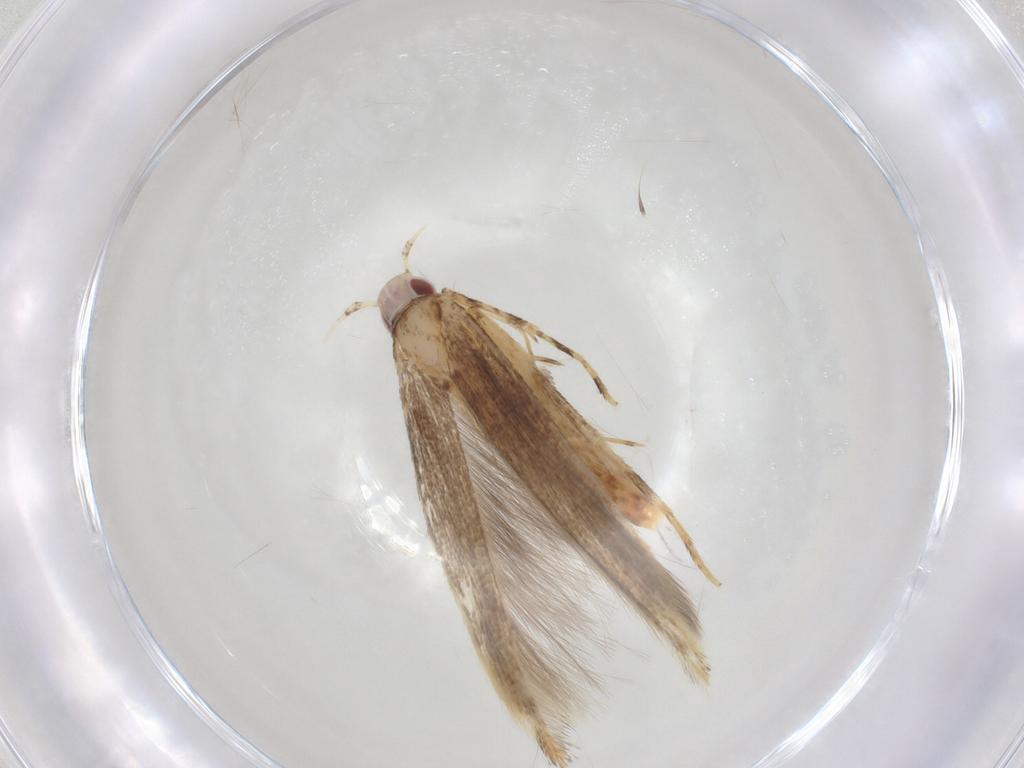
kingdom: Animalia
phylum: Arthropoda
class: Insecta
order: Lepidoptera
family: Cosmopterigidae
